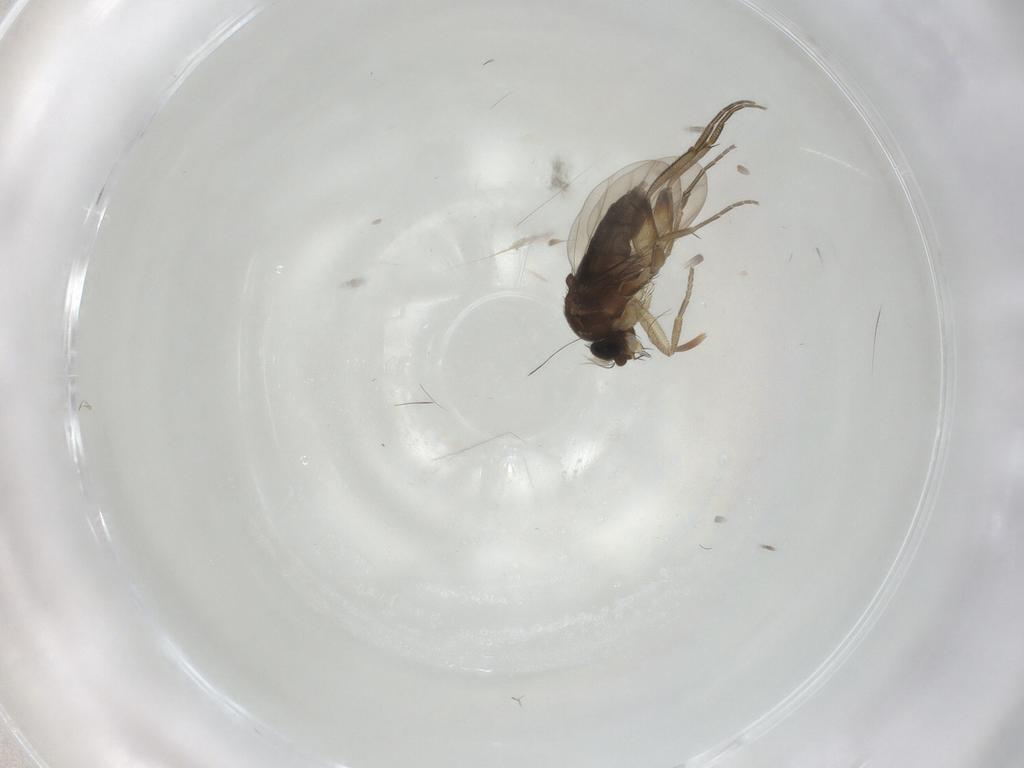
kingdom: Animalia
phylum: Arthropoda
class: Insecta
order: Diptera
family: Phoridae
